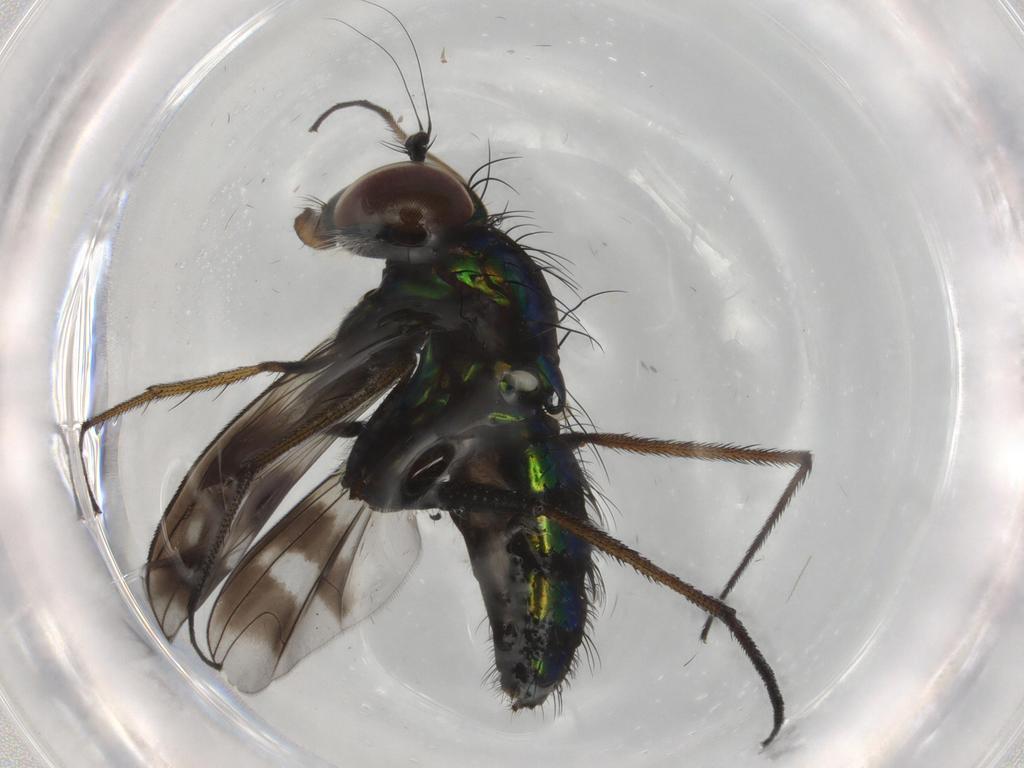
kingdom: Animalia
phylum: Arthropoda
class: Insecta
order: Diptera
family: Dolichopodidae
